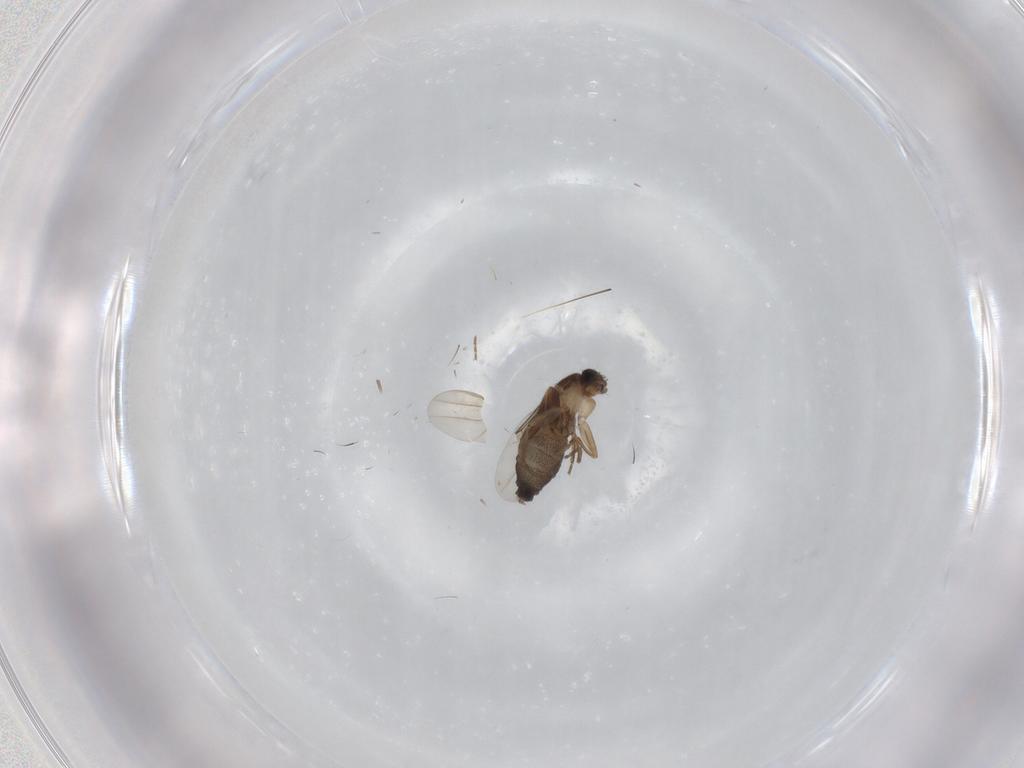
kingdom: Animalia
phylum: Arthropoda
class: Insecta
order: Diptera
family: Phoridae
